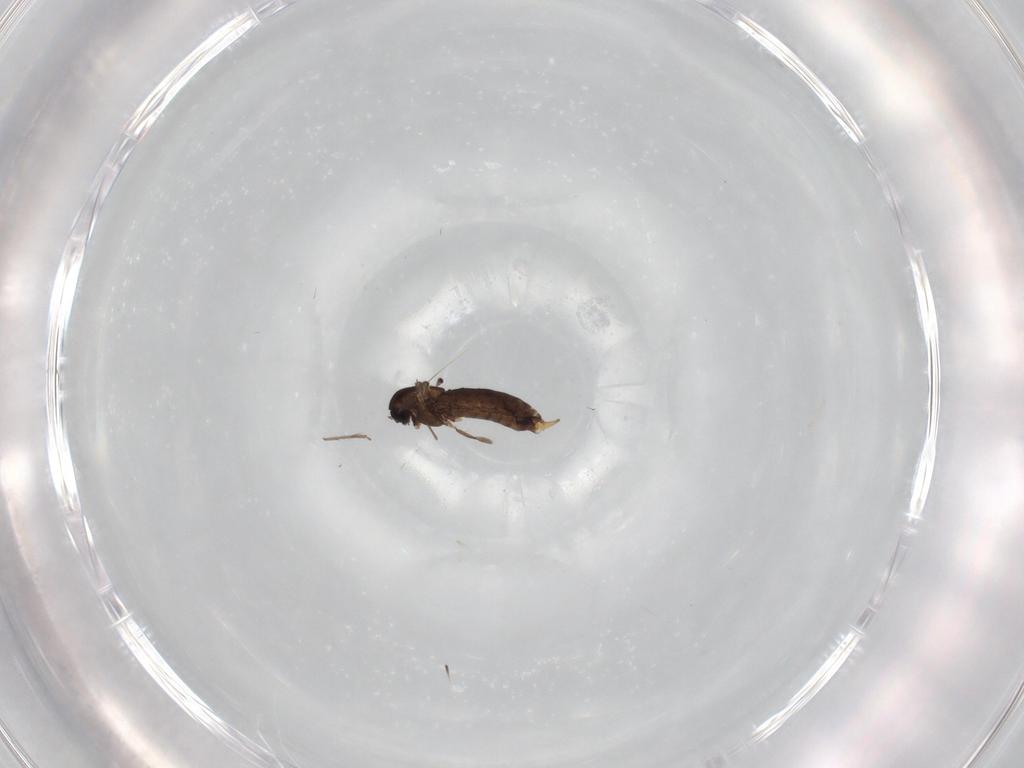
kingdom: Animalia
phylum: Arthropoda
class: Insecta
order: Diptera
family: Chironomidae
